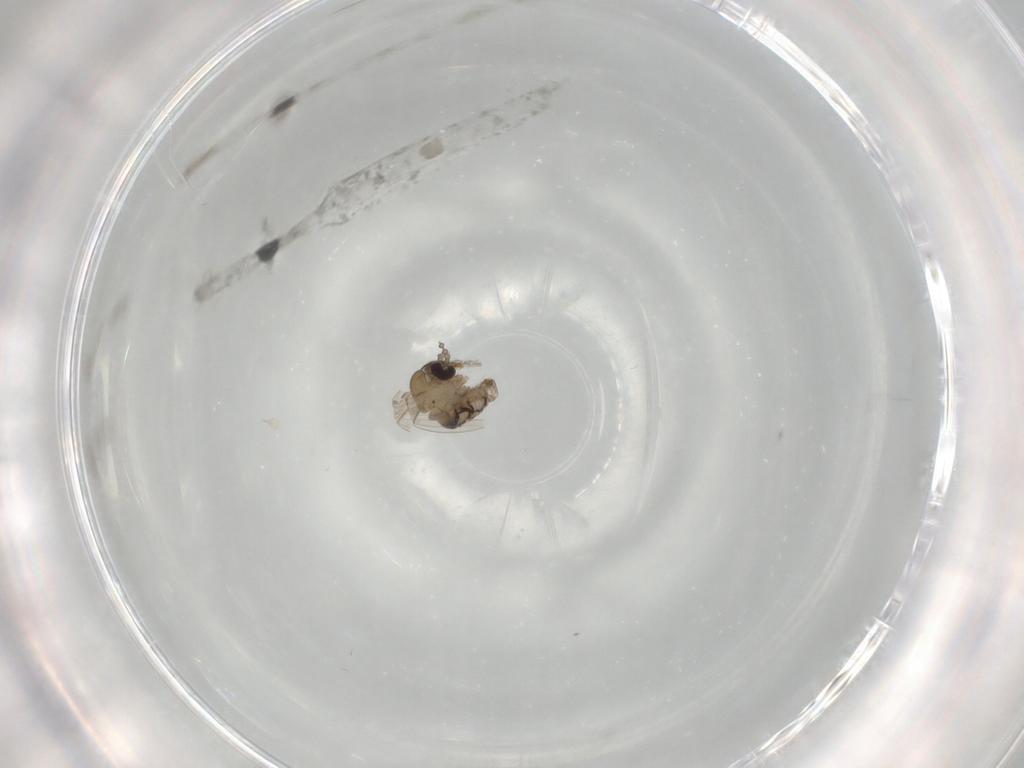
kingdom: Animalia
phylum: Arthropoda
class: Insecta
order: Diptera
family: Psychodidae
